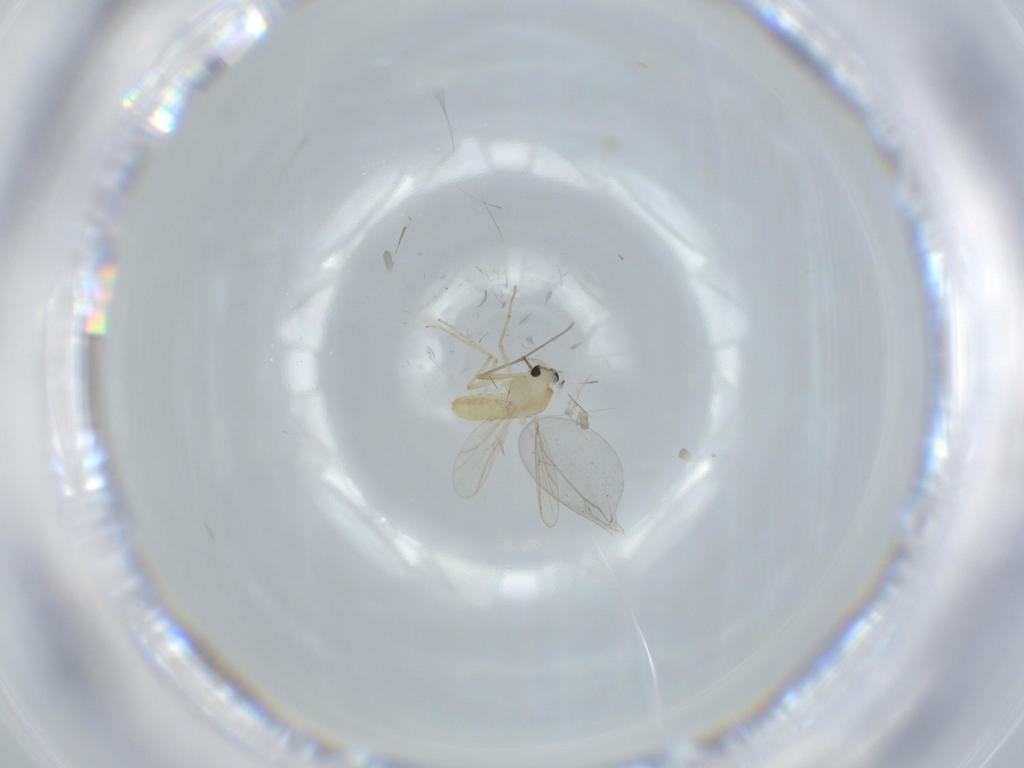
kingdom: Animalia
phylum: Arthropoda
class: Insecta
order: Diptera
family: Cecidomyiidae
